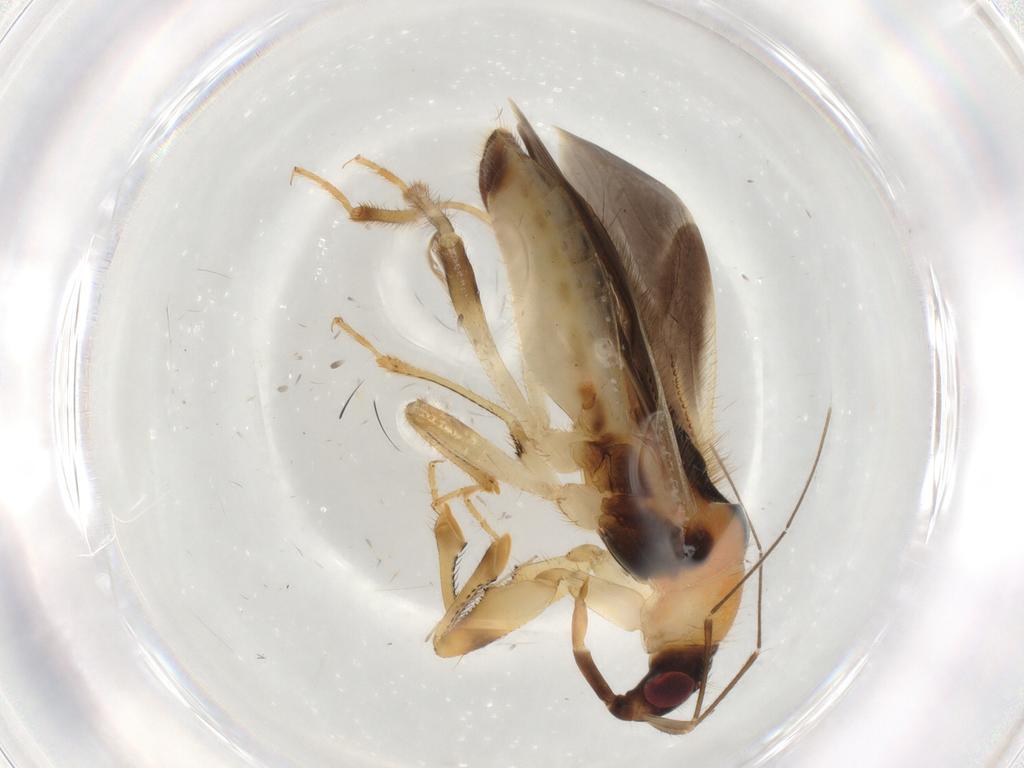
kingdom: Animalia
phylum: Arthropoda
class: Insecta
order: Hemiptera
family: Nabidae
